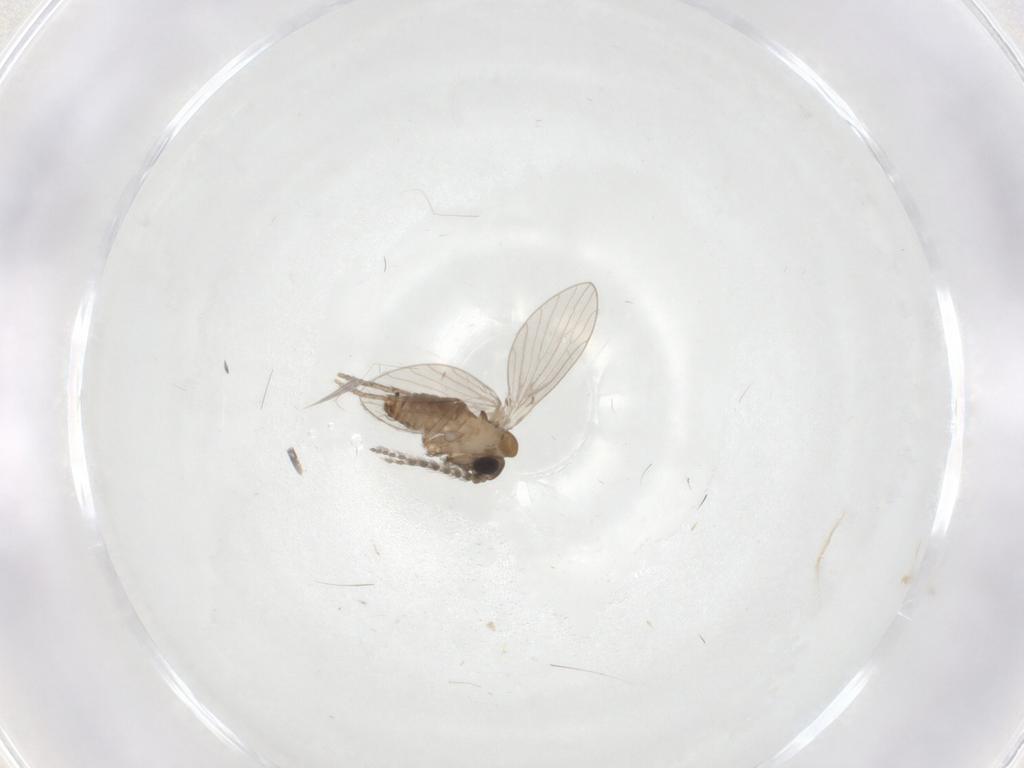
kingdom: Animalia
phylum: Arthropoda
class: Insecta
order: Diptera
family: Psychodidae
